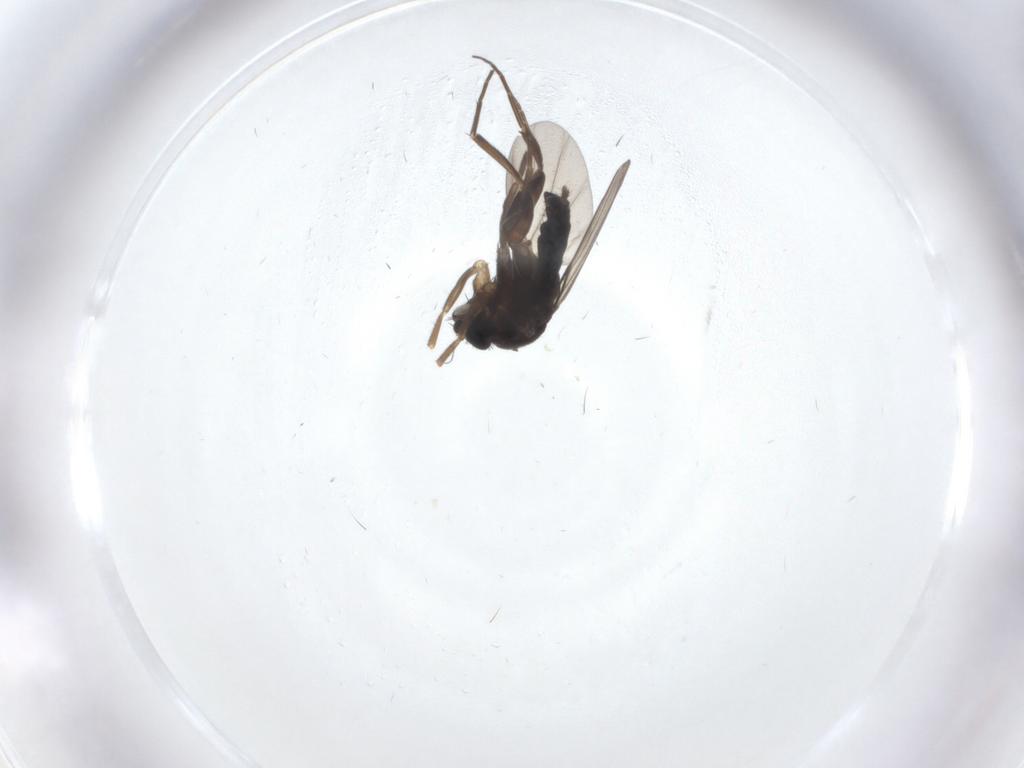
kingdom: Animalia
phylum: Arthropoda
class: Insecta
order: Diptera
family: Phoridae
